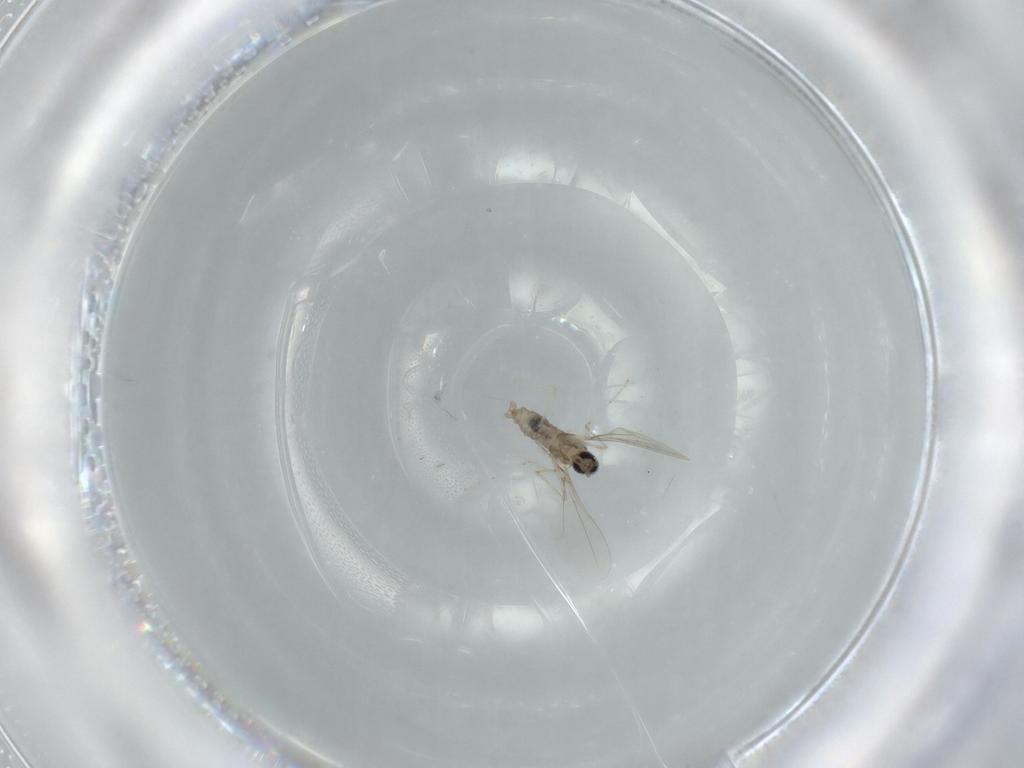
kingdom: Animalia
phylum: Arthropoda
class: Insecta
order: Diptera
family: Cecidomyiidae
